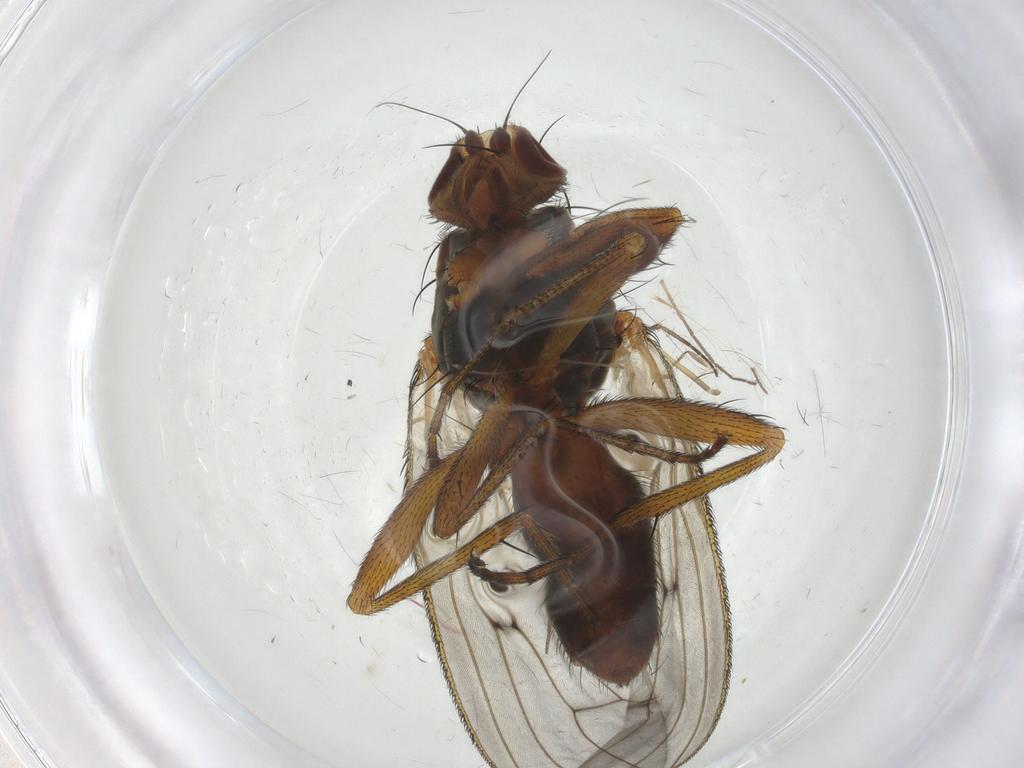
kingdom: Animalia
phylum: Arthropoda
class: Insecta
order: Diptera
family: Heleomyzidae
